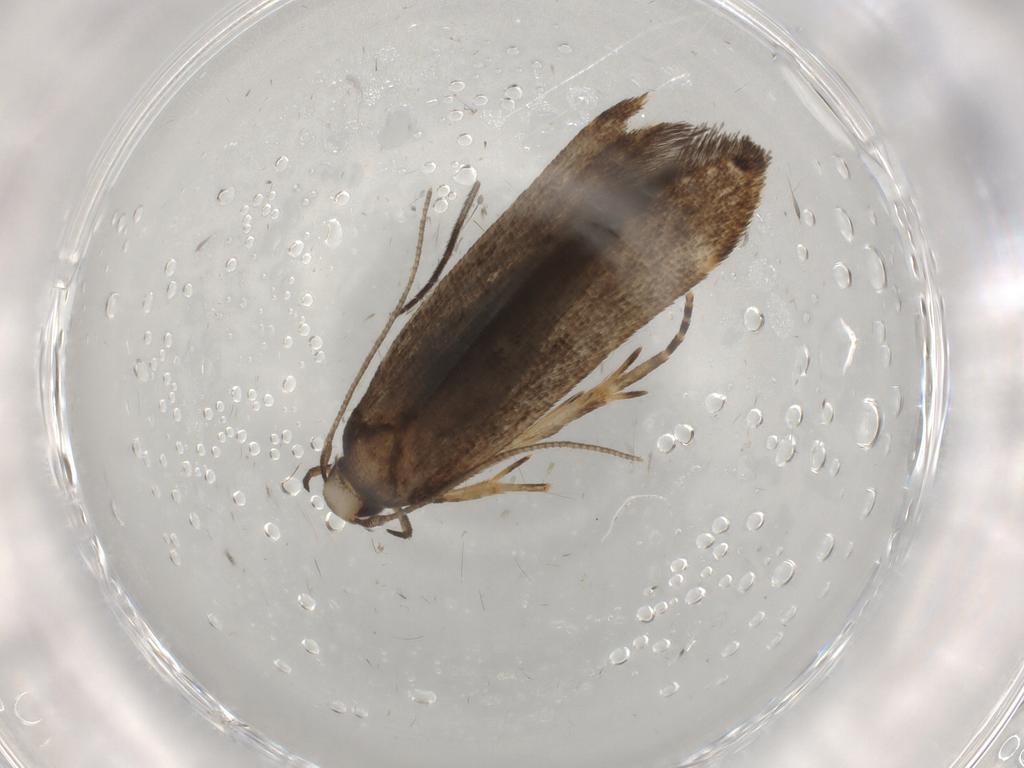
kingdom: Animalia
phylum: Arthropoda
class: Insecta
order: Lepidoptera
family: Cosmopterigidae
